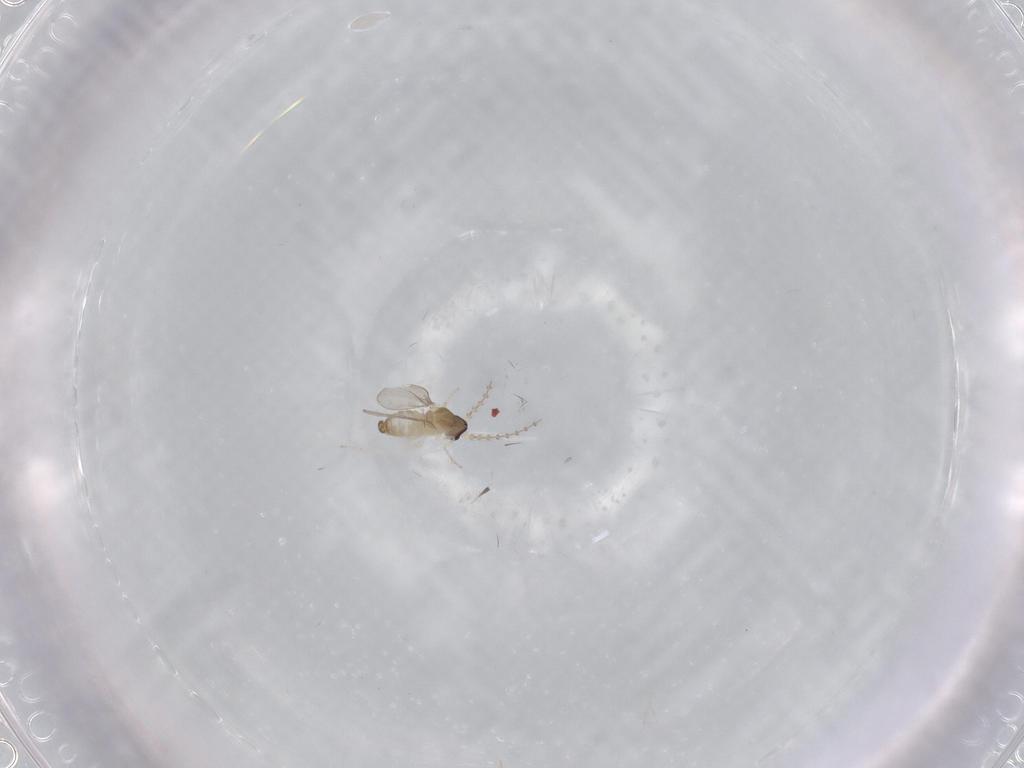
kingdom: Animalia
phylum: Arthropoda
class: Insecta
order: Diptera
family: Cecidomyiidae
